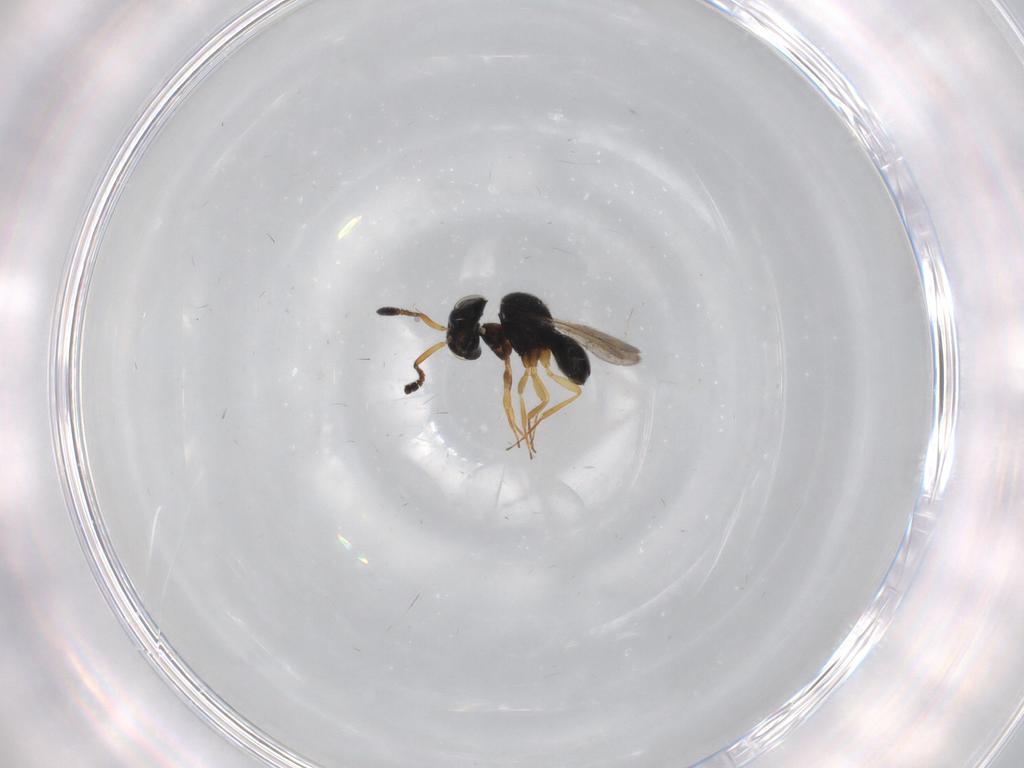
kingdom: Animalia
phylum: Arthropoda
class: Insecta
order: Hymenoptera
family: Scelionidae
